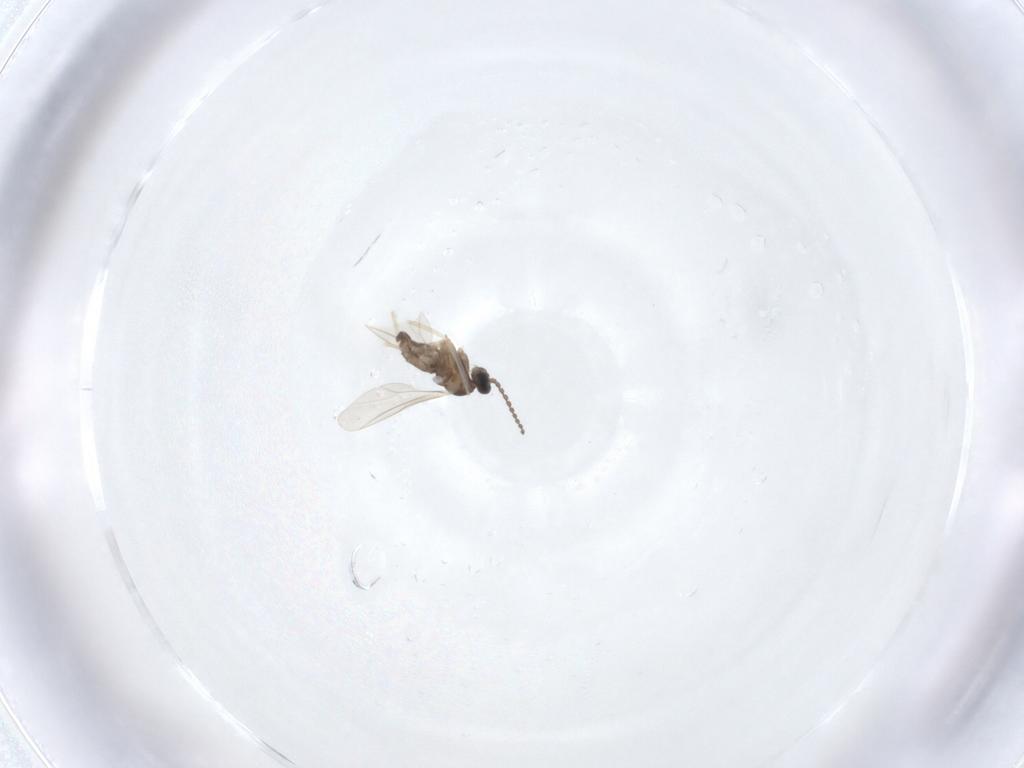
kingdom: Animalia
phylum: Arthropoda
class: Insecta
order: Diptera
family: Cecidomyiidae
